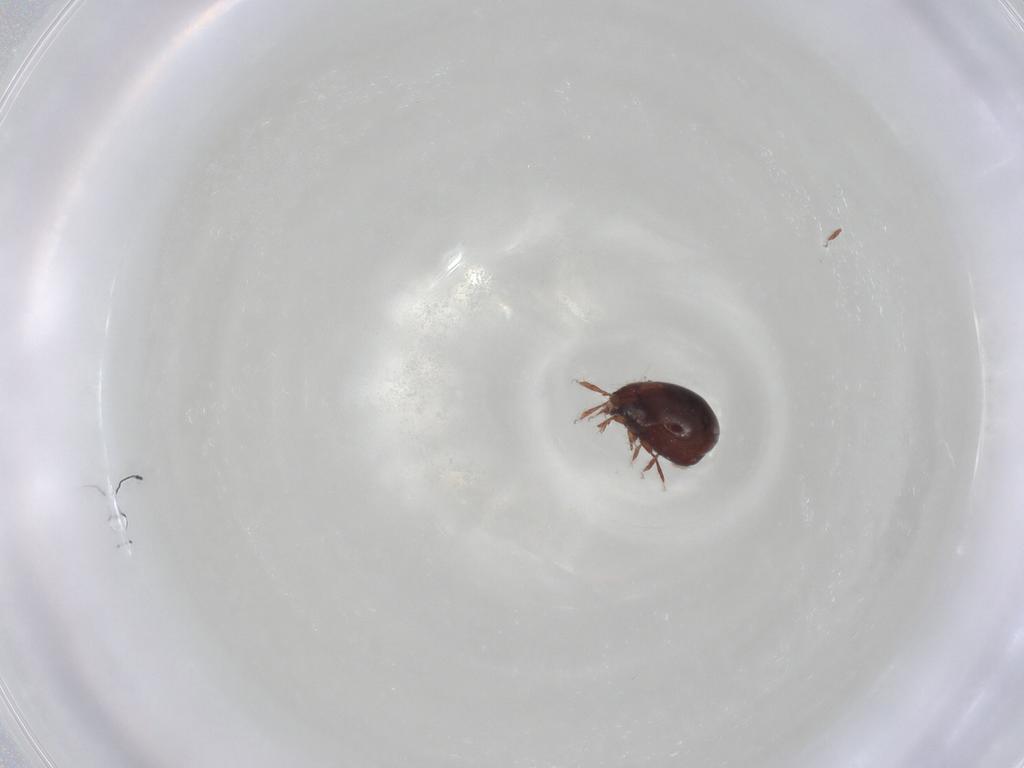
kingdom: Animalia
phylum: Arthropoda
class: Arachnida
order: Sarcoptiformes
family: Humerobatidae
